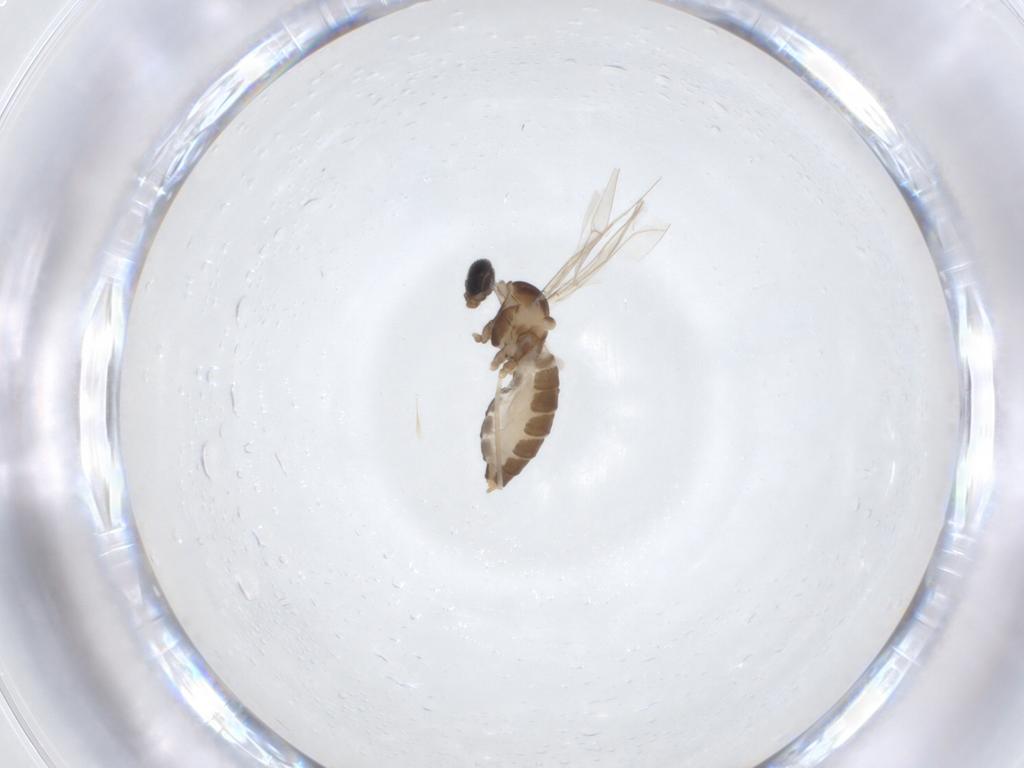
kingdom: Animalia
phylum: Arthropoda
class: Insecta
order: Diptera
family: Cecidomyiidae
